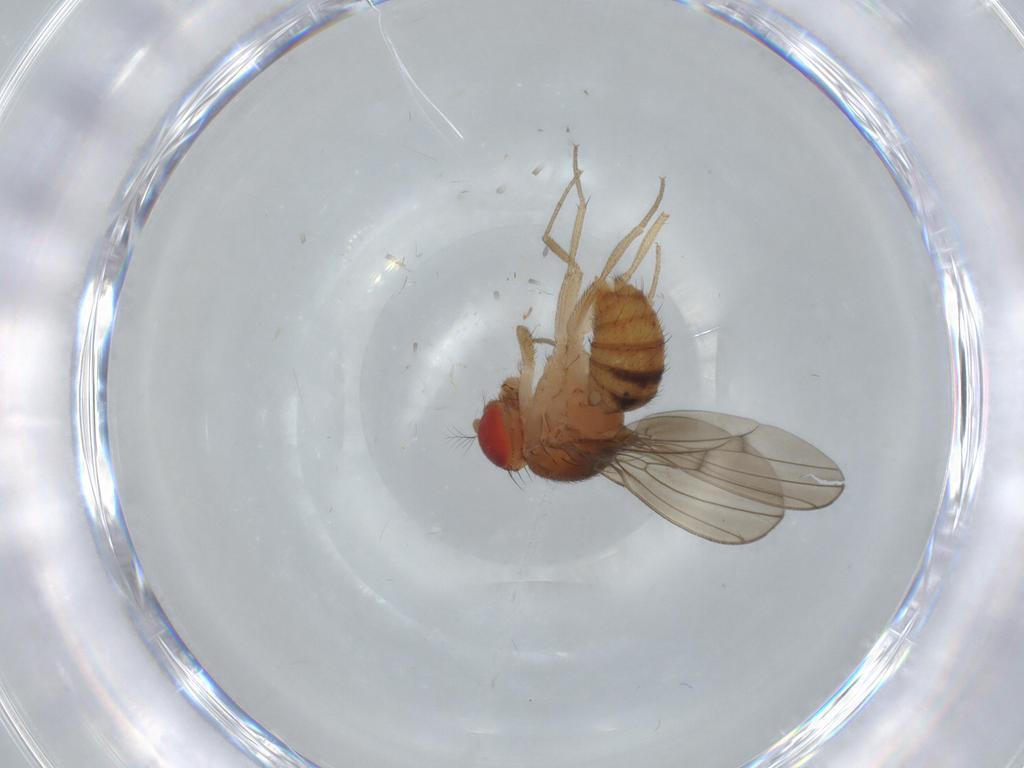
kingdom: Animalia
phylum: Arthropoda
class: Insecta
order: Diptera
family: Drosophilidae
